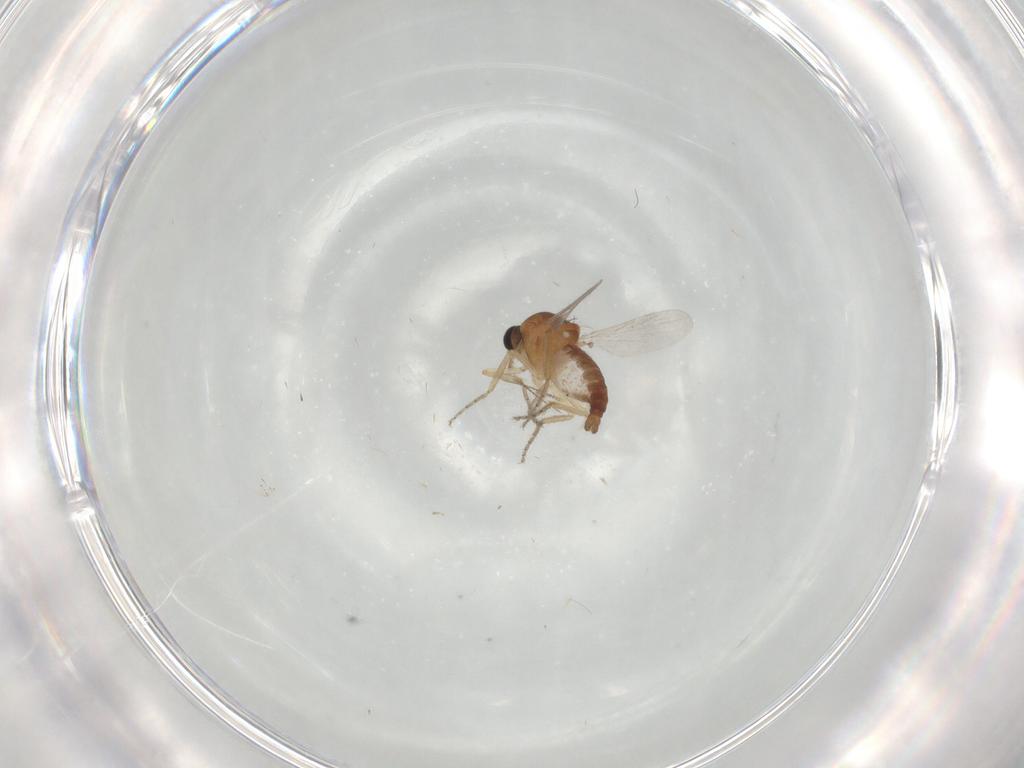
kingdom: Animalia
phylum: Arthropoda
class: Insecta
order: Diptera
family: Ceratopogonidae
